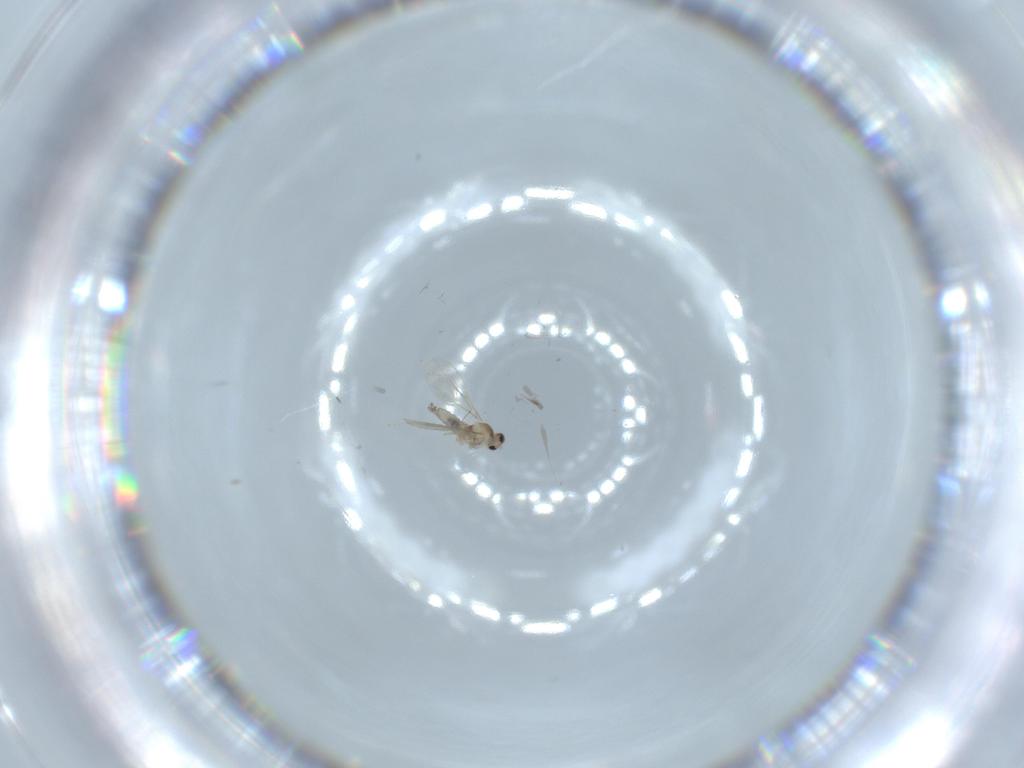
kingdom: Animalia
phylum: Arthropoda
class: Insecta
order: Diptera
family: Cecidomyiidae
